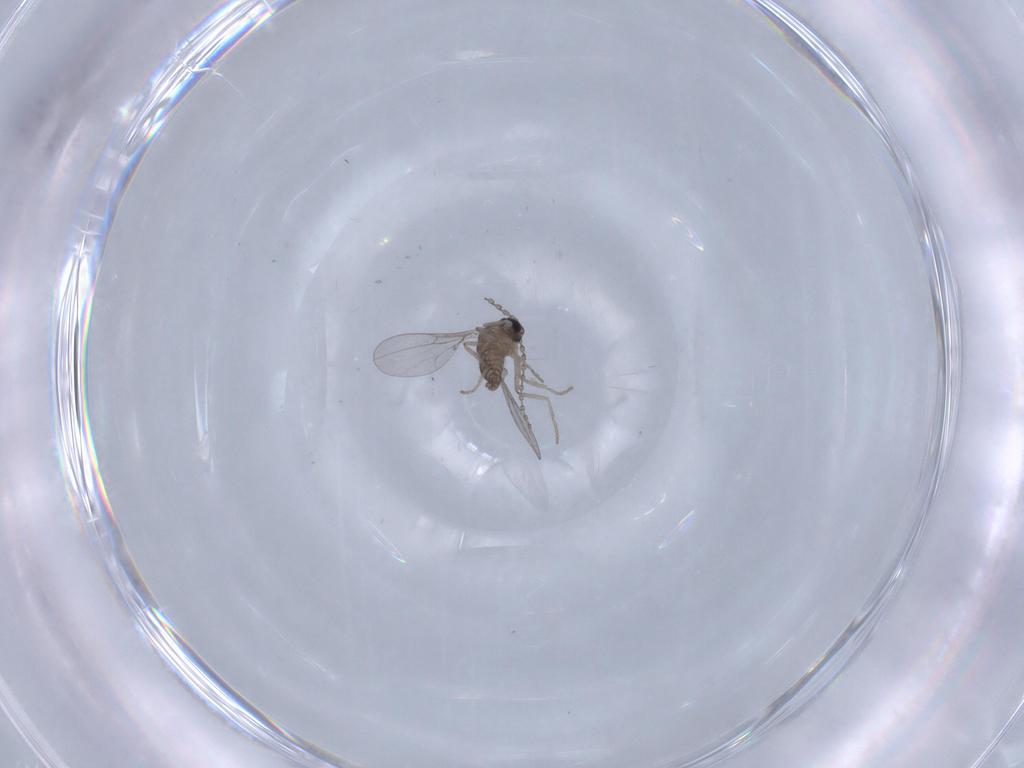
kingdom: Animalia
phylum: Arthropoda
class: Insecta
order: Diptera
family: Cecidomyiidae
